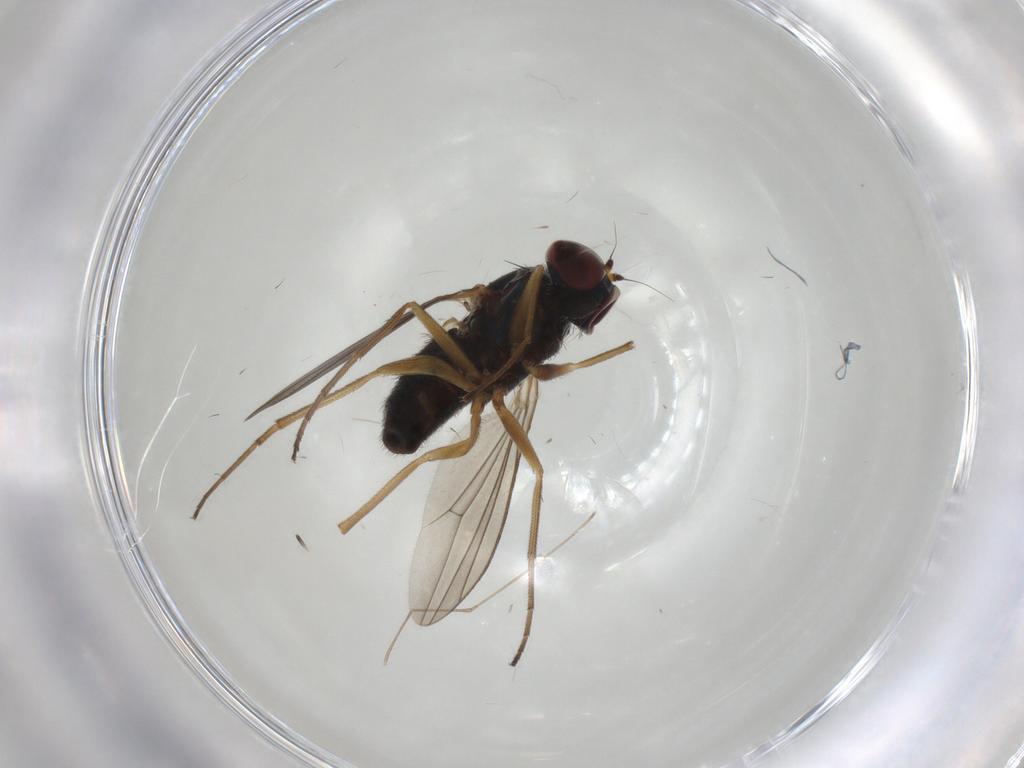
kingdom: Animalia
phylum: Arthropoda
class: Insecta
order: Diptera
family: Dolichopodidae
